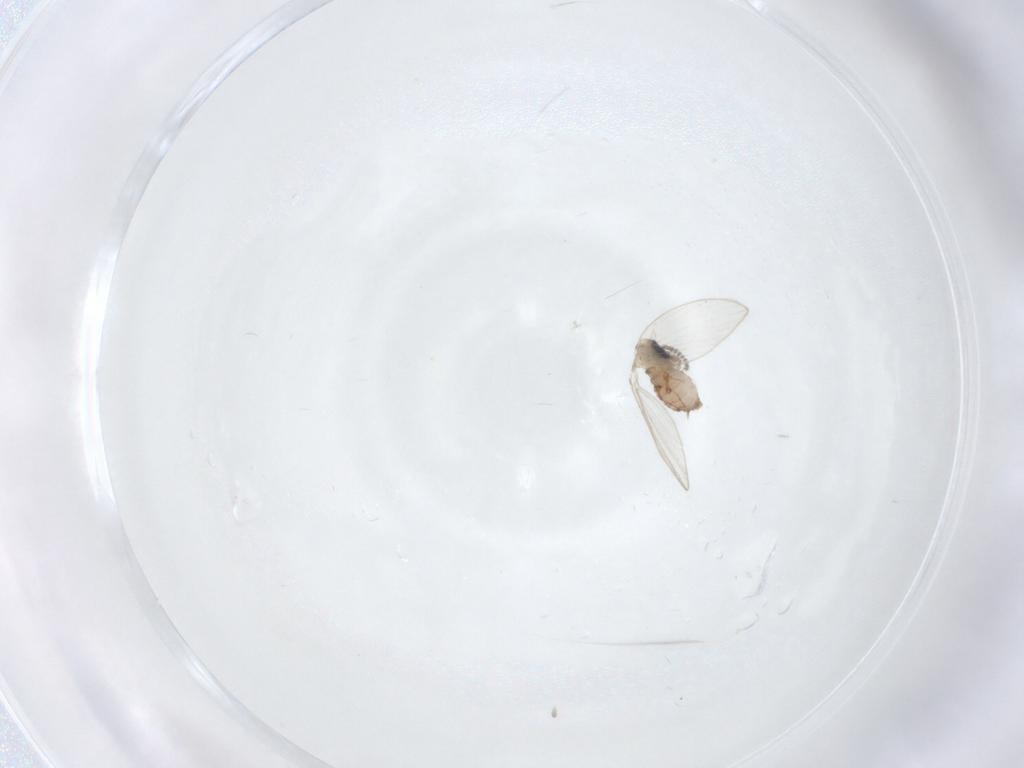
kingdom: Animalia
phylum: Arthropoda
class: Insecta
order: Diptera
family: Psychodidae
